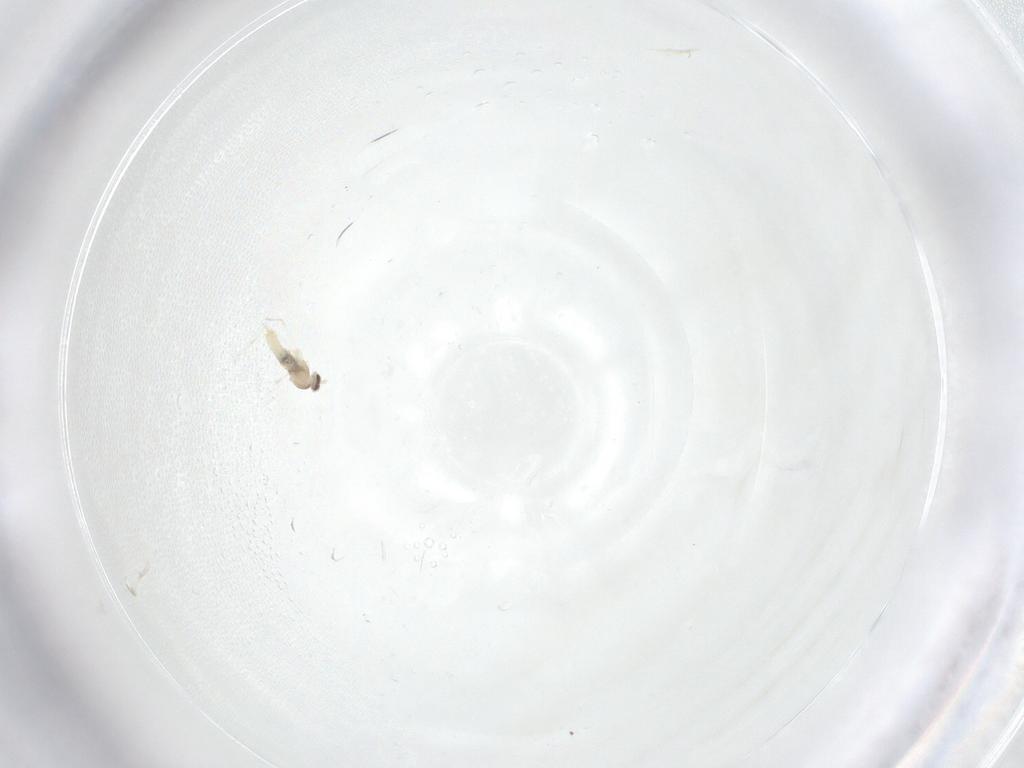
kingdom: Animalia
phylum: Arthropoda
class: Insecta
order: Diptera
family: Cecidomyiidae
